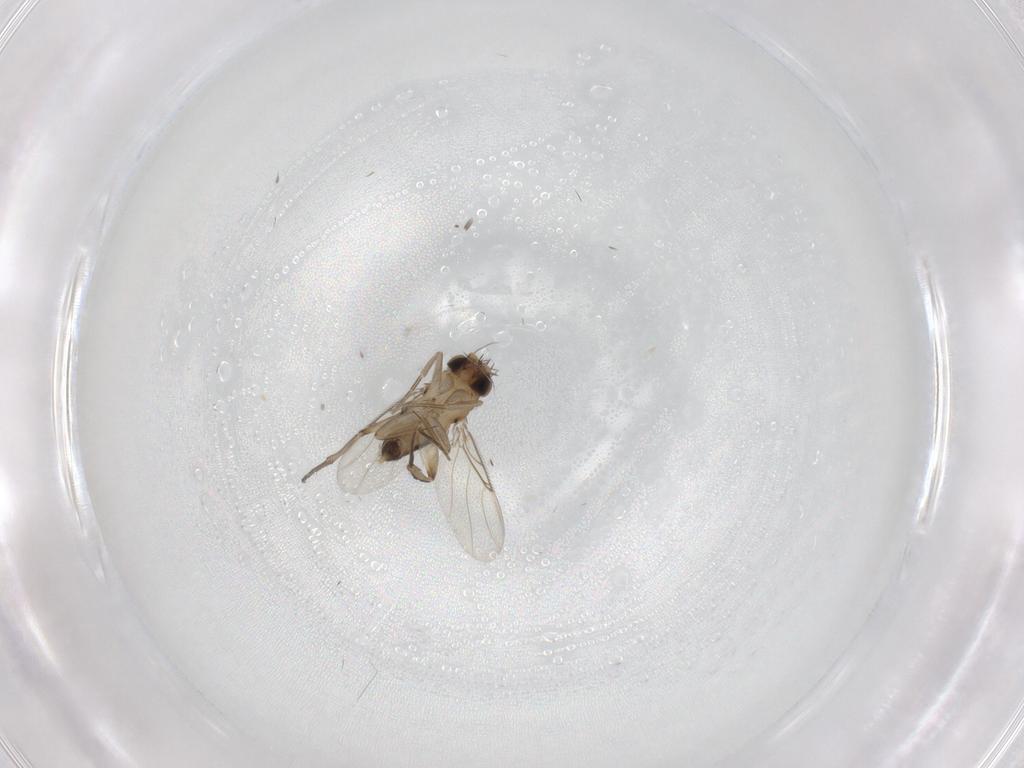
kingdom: Animalia
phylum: Arthropoda
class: Insecta
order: Diptera
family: Phoridae
